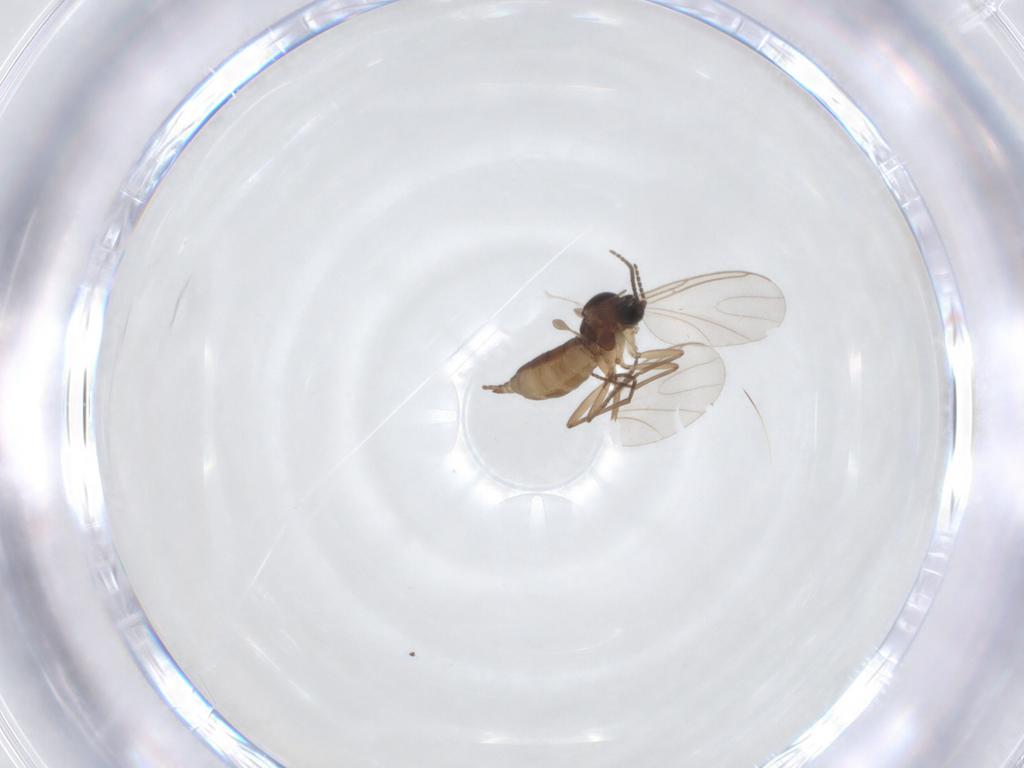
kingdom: Animalia
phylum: Arthropoda
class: Insecta
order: Diptera
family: Sciaridae
